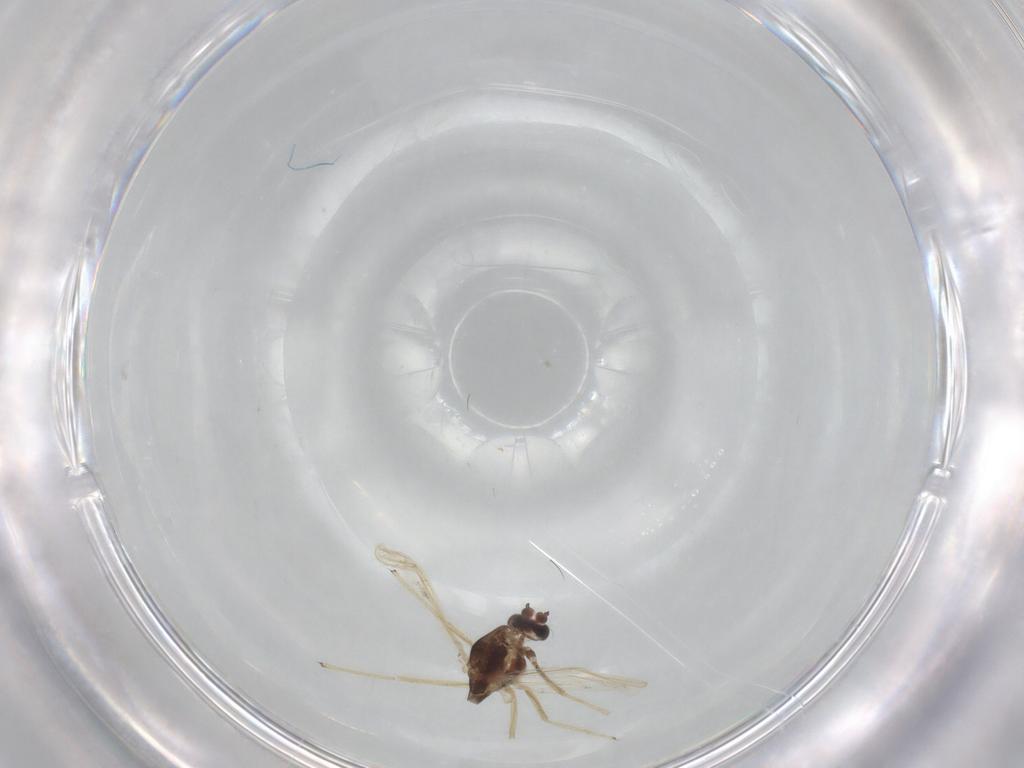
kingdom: Animalia
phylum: Arthropoda
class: Insecta
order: Diptera
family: Chironomidae
